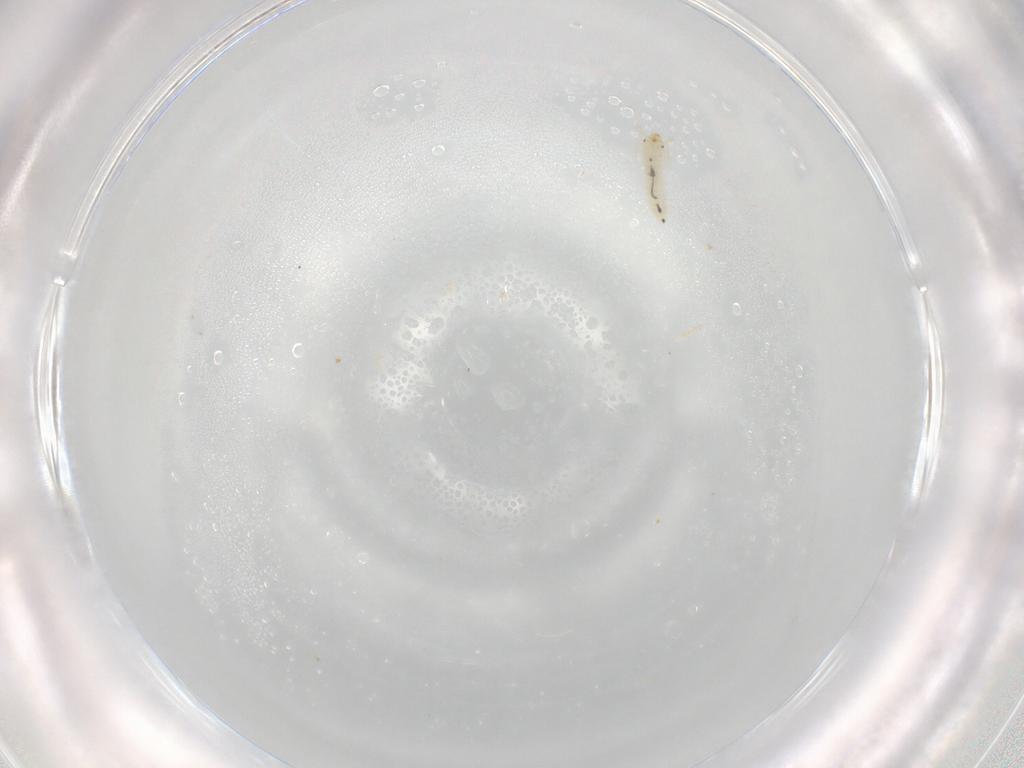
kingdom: Animalia
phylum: Arthropoda
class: Insecta
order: Coleoptera
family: Silvanidae
